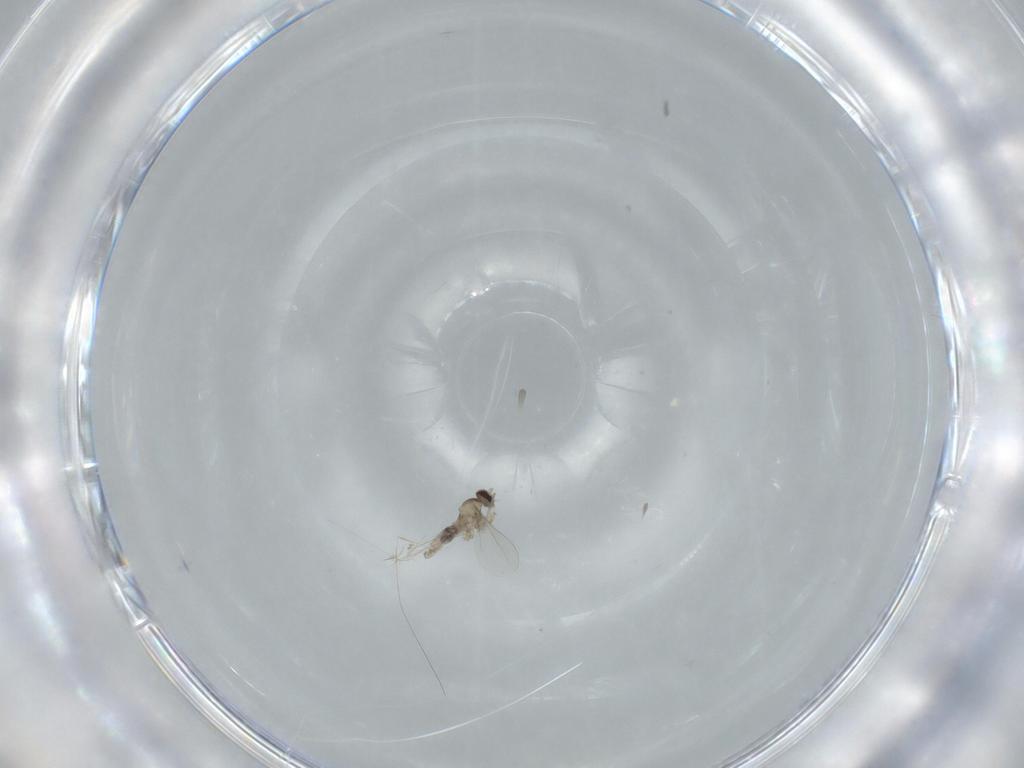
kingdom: Animalia
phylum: Arthropoda
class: Insecta
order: Diptera
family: Cecidomyiidae
